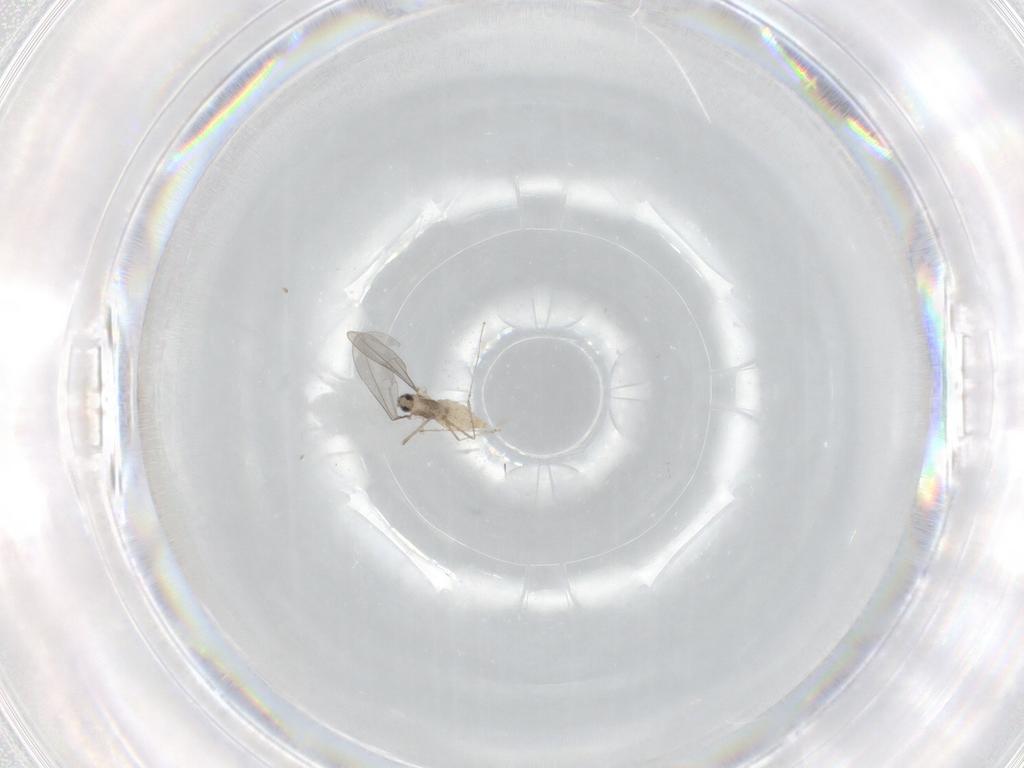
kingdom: Animalia
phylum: Arthropoda
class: Insecta
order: Diptera
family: Cecidomyiidae
